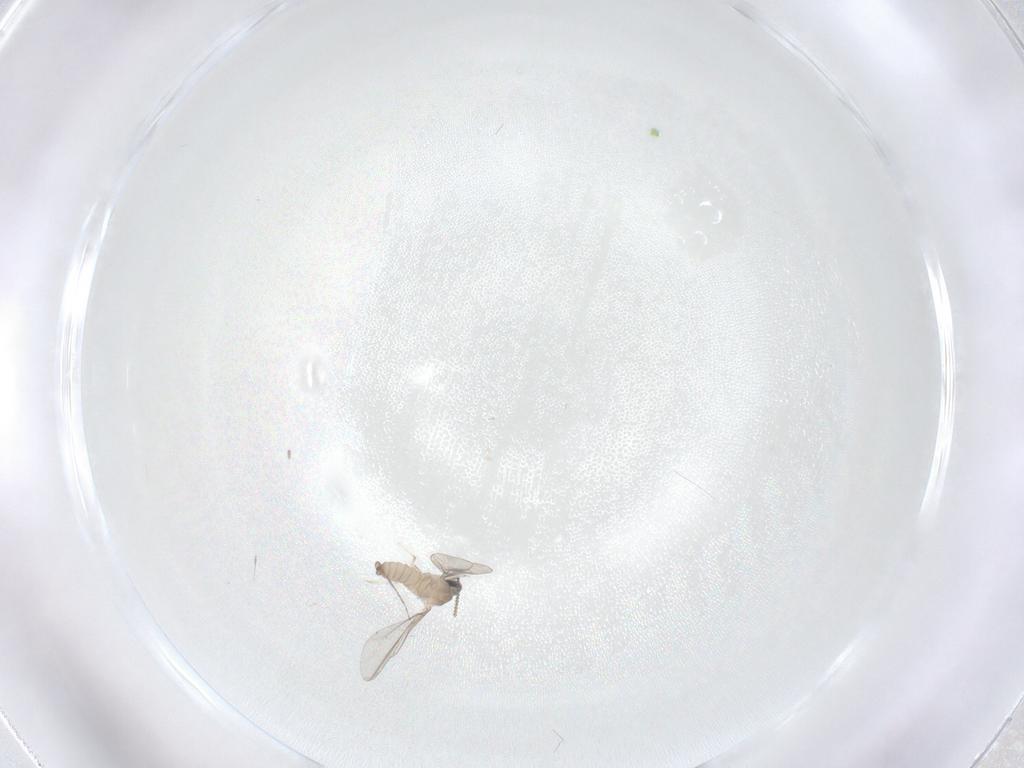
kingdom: Animalia
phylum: Arthropoda
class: Insecta
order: Diptera
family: Cecidomyiidae
